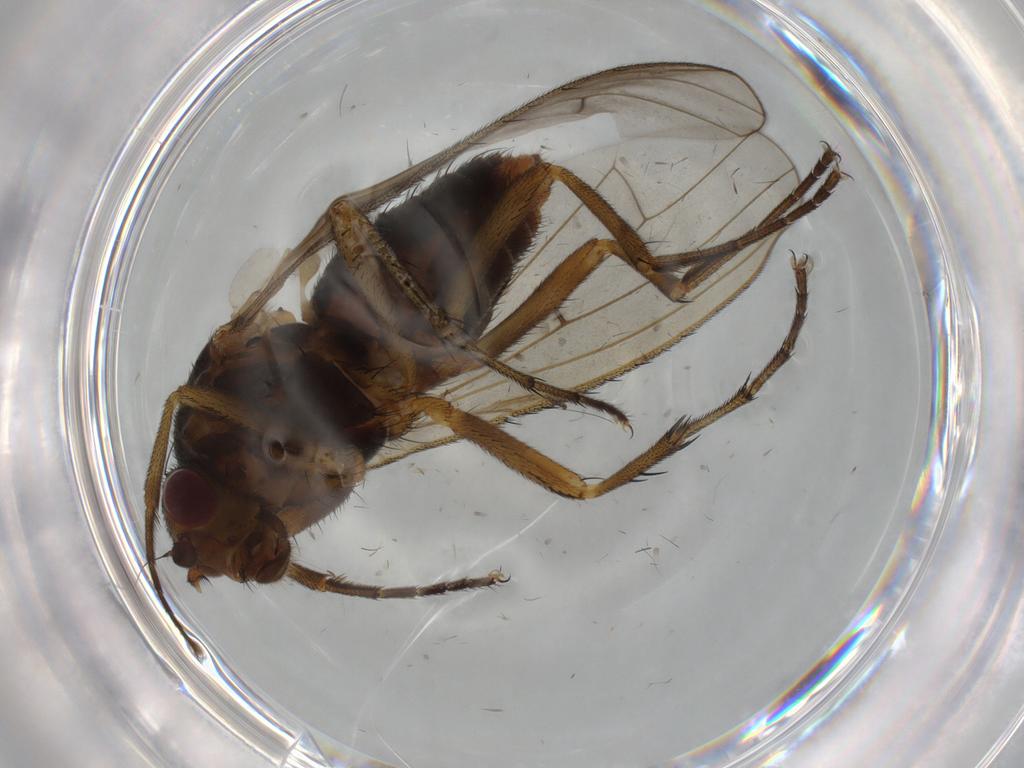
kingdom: Animalia
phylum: Arthropoda
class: Insecta
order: Diptera
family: Heleomyzidae
